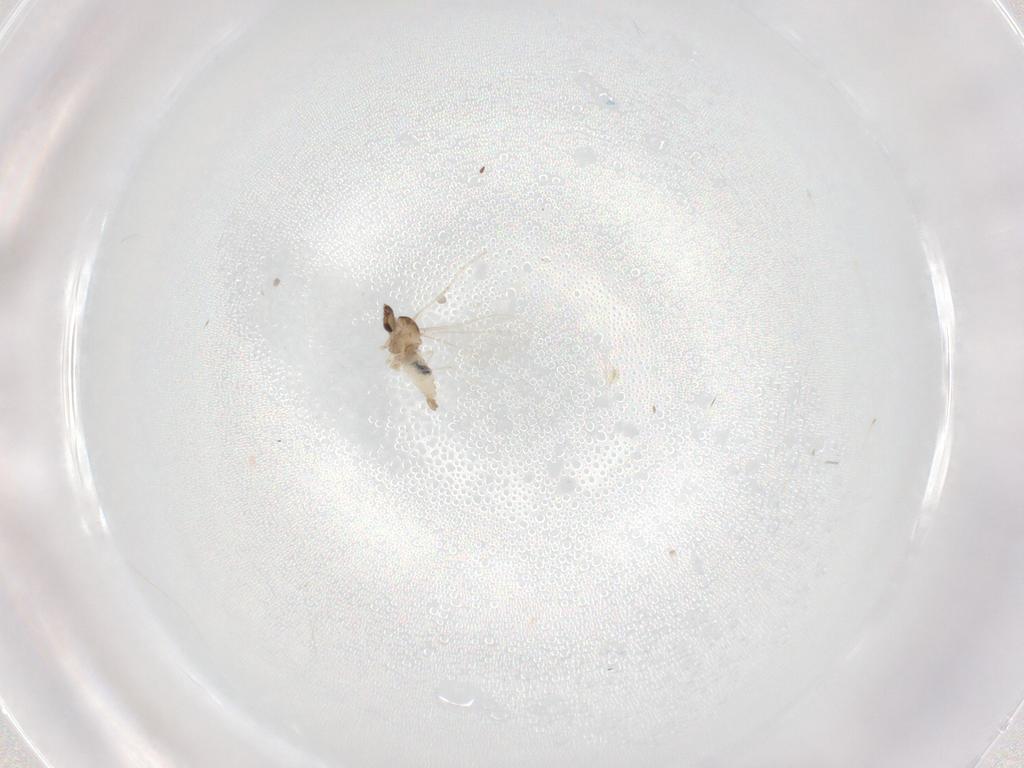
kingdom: Animalia
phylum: Arthropoda
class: Insecta
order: Diptera
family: Cecidomyiidae
